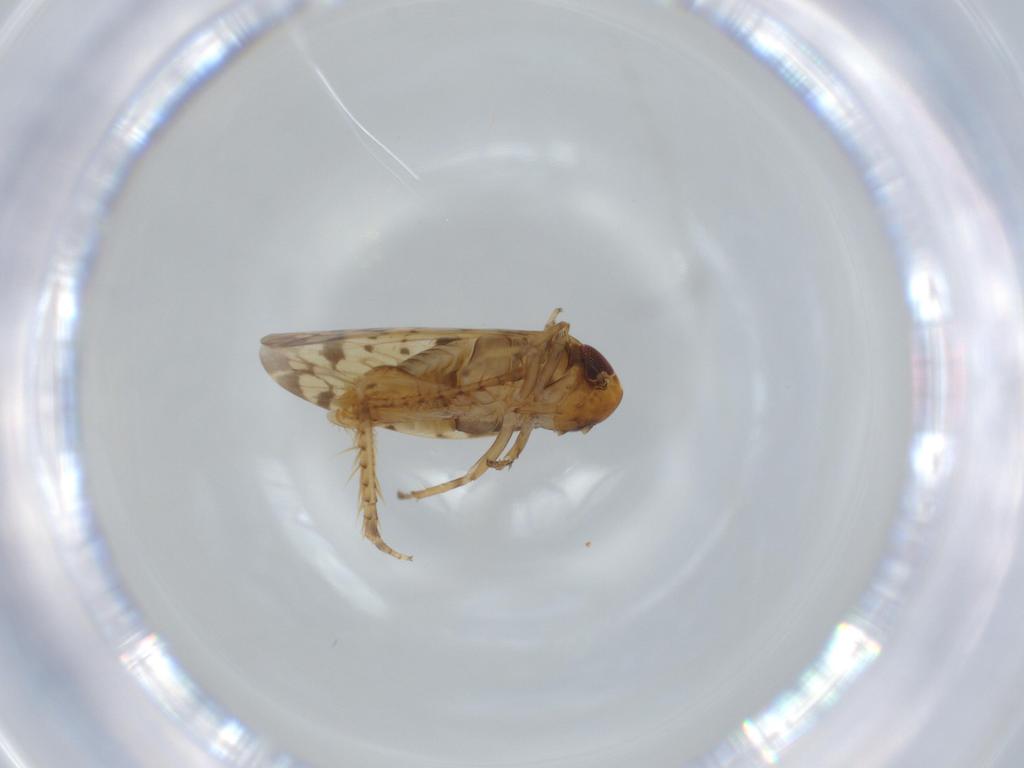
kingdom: Animalia
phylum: Arthropoda
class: Insecta
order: Hemiptera
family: Cicadellidae
